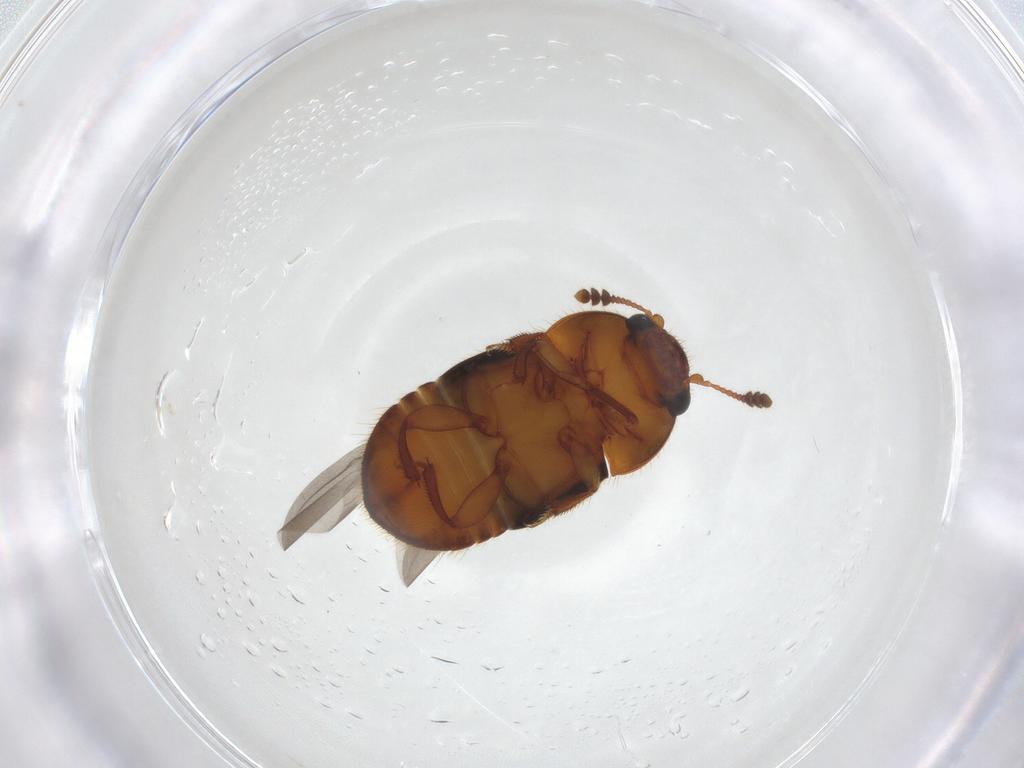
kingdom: Animalia
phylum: Arthropoda
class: Insecta
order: Coleoptera
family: Nitidulidae
